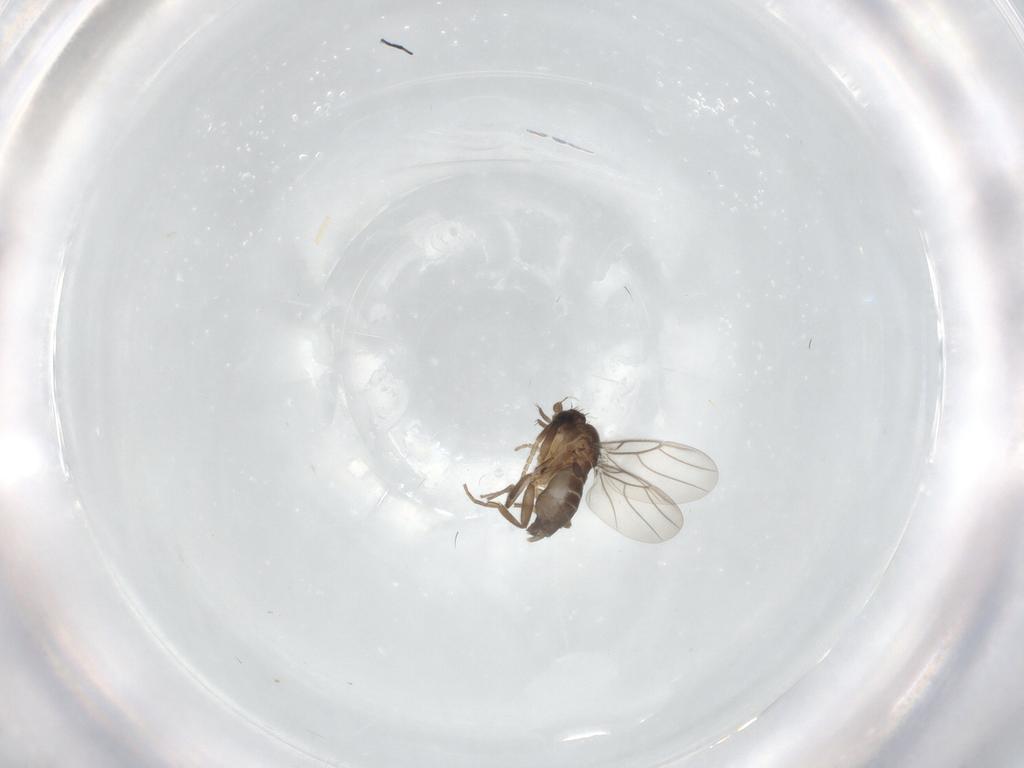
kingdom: Animalia
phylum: Arthropoda
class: Insecta
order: Diptera
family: Phoridae
